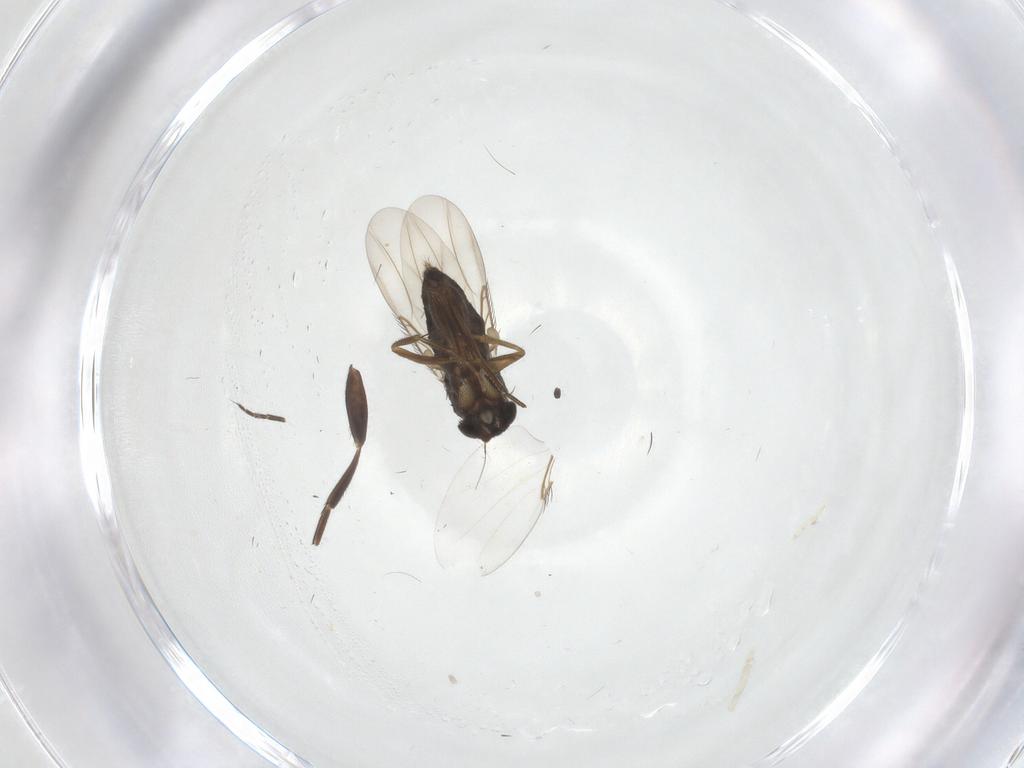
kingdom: Animalia
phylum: Arthropoda
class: Insecta
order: Diptera
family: Phoridae
